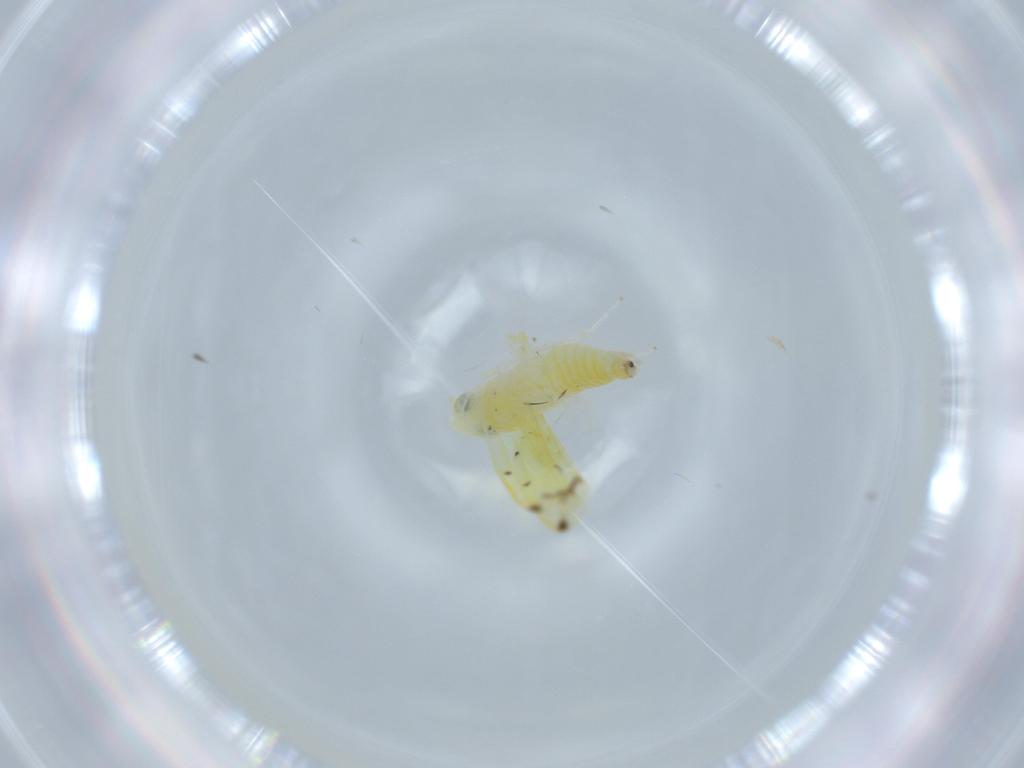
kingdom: Animalia
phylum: Arthropoda
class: Insecta
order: Hemiptera
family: Cicadellidae
